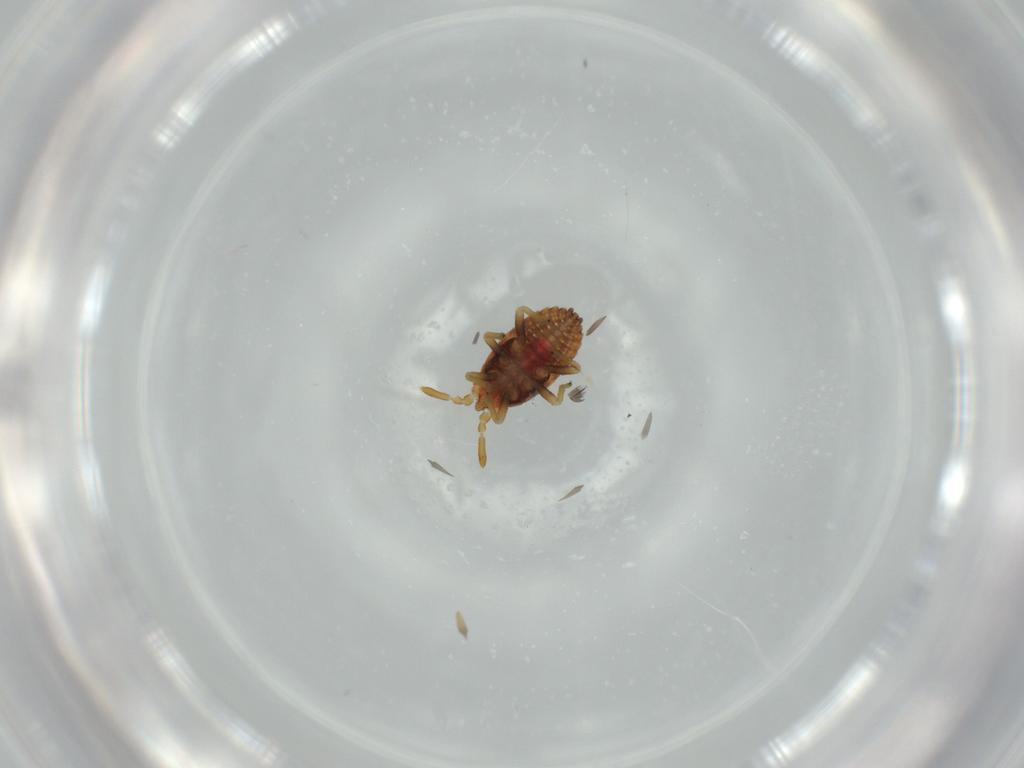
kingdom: Animalia
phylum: Arthropoda
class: Insecta
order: Hemiptera
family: Aradidae
